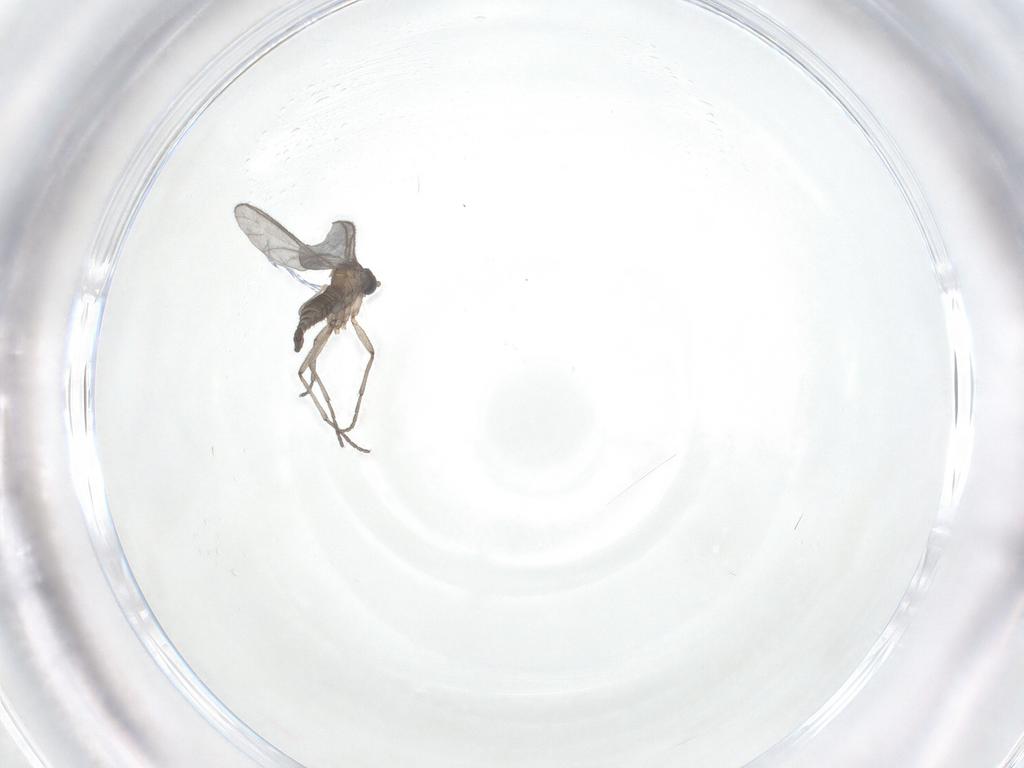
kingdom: Animalia
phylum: Arthropoda
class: Insecta
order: Diptera
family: Sciaridae
